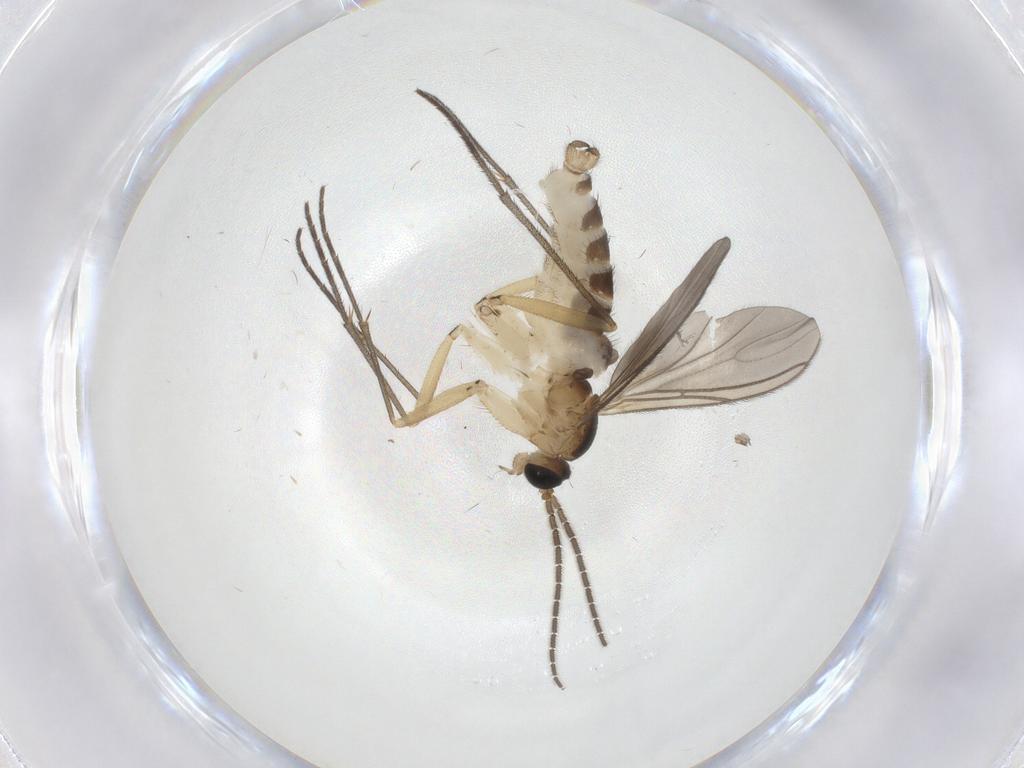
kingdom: Animalia
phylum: Arthropoda
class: Insecta
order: Diptera
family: Sciaridae
